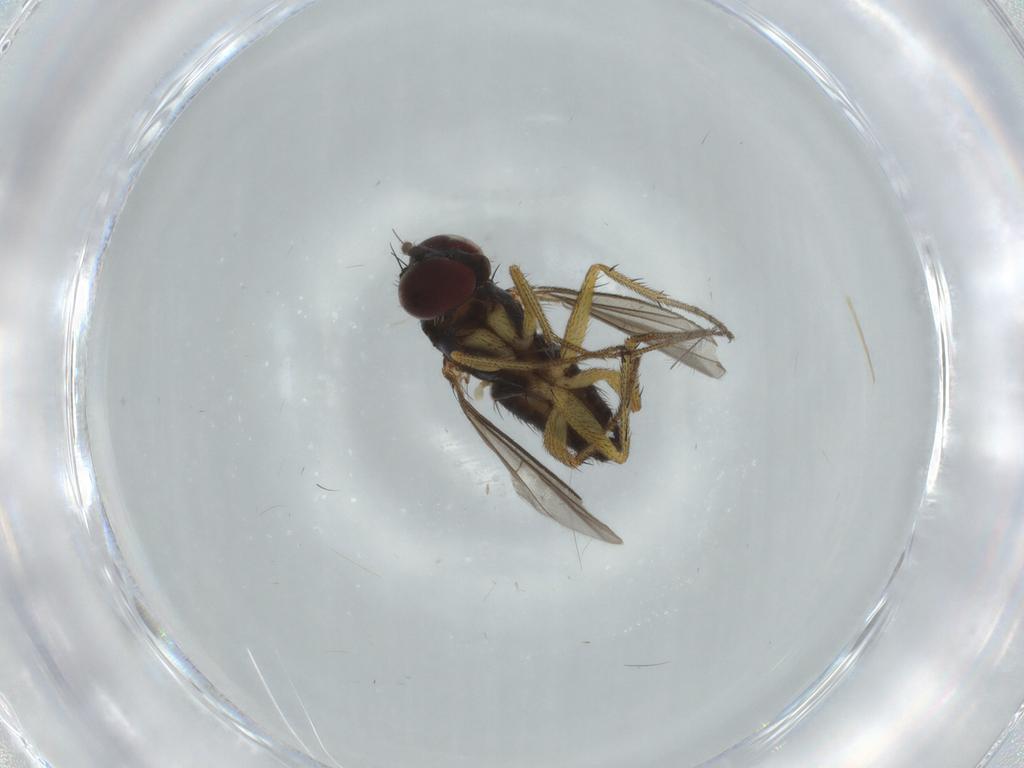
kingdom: Animalia
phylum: Arthropoda
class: Insecta
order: Diptera
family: Dolichopodidae
